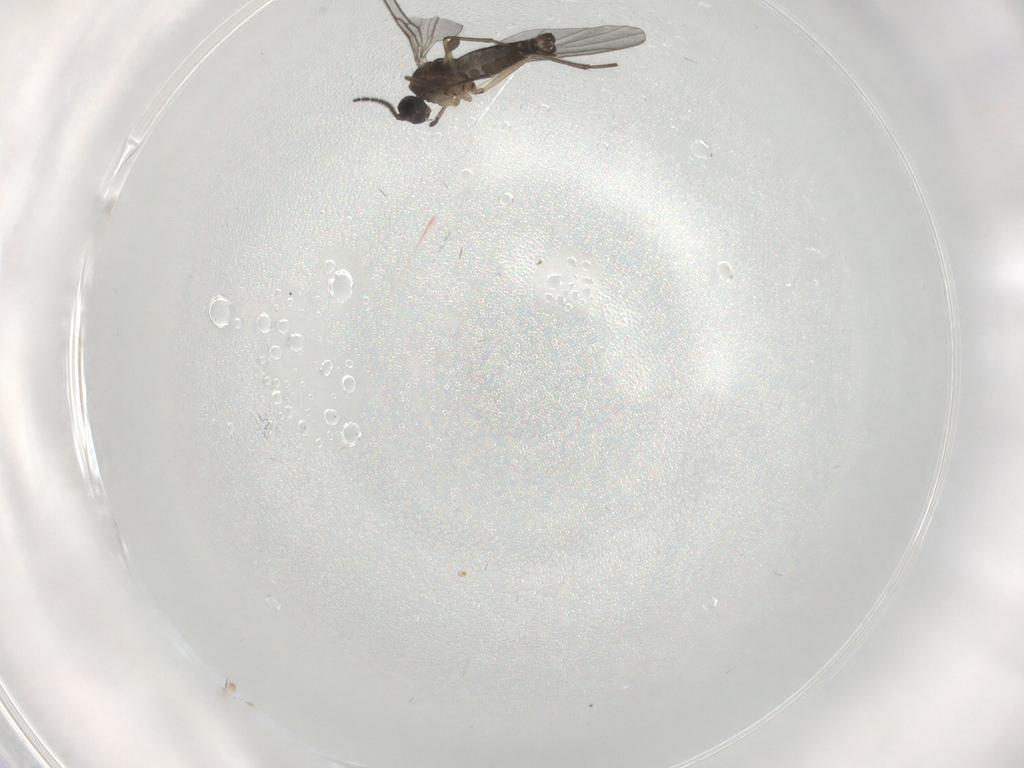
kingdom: Animalia
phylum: Arthropoda
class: Insecta
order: Diptera
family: Sciaridae
